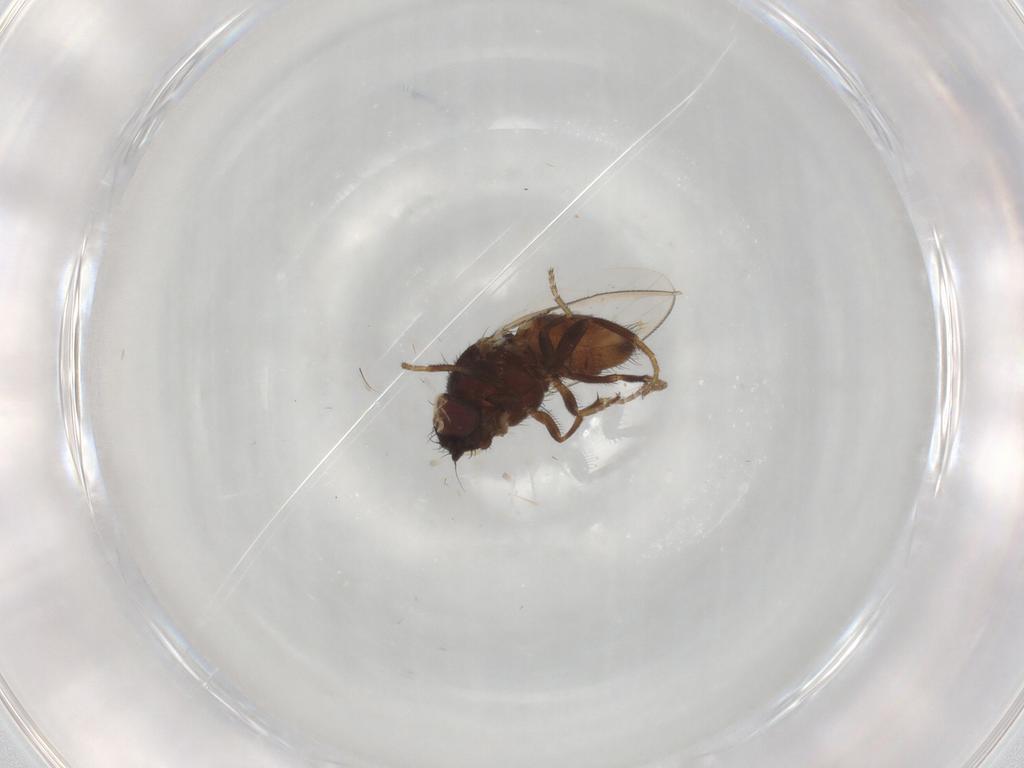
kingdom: Animalia
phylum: Arthropoda
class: Insecta
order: Diptera
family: Milichiidae
